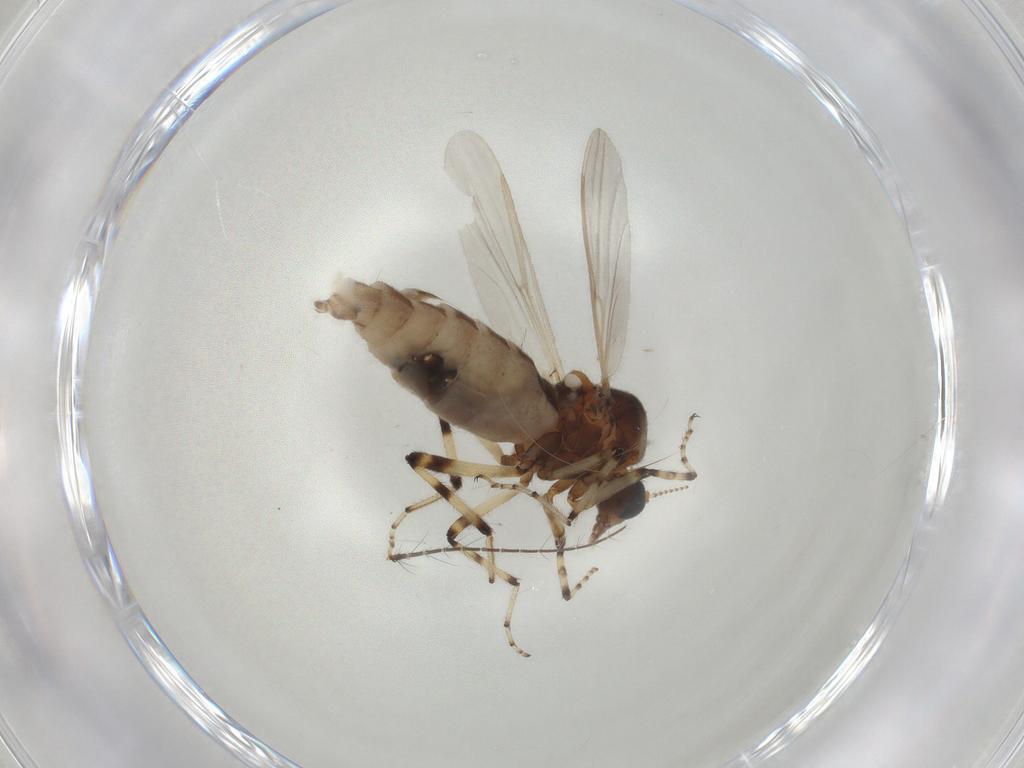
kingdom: Animalia
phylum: Arthropoda
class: Insecta
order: Diptera
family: Ceratopogonidae
